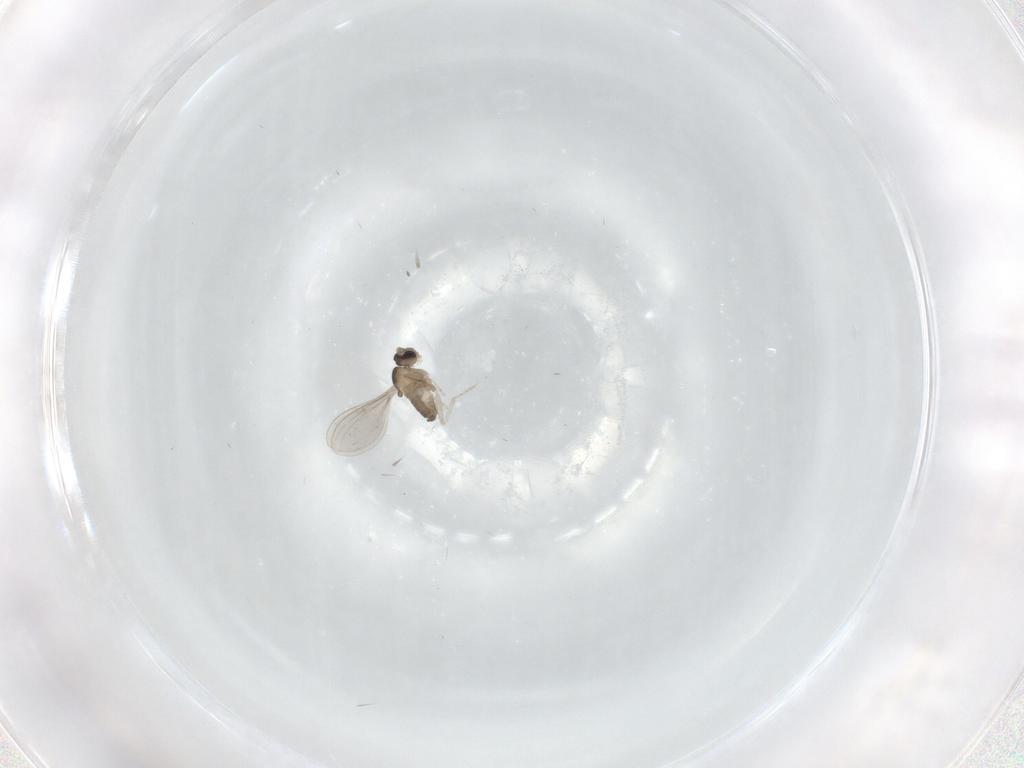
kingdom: Animalia
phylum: Arthropoda
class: Insecta
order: Diptera
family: Cecidomyiidae
